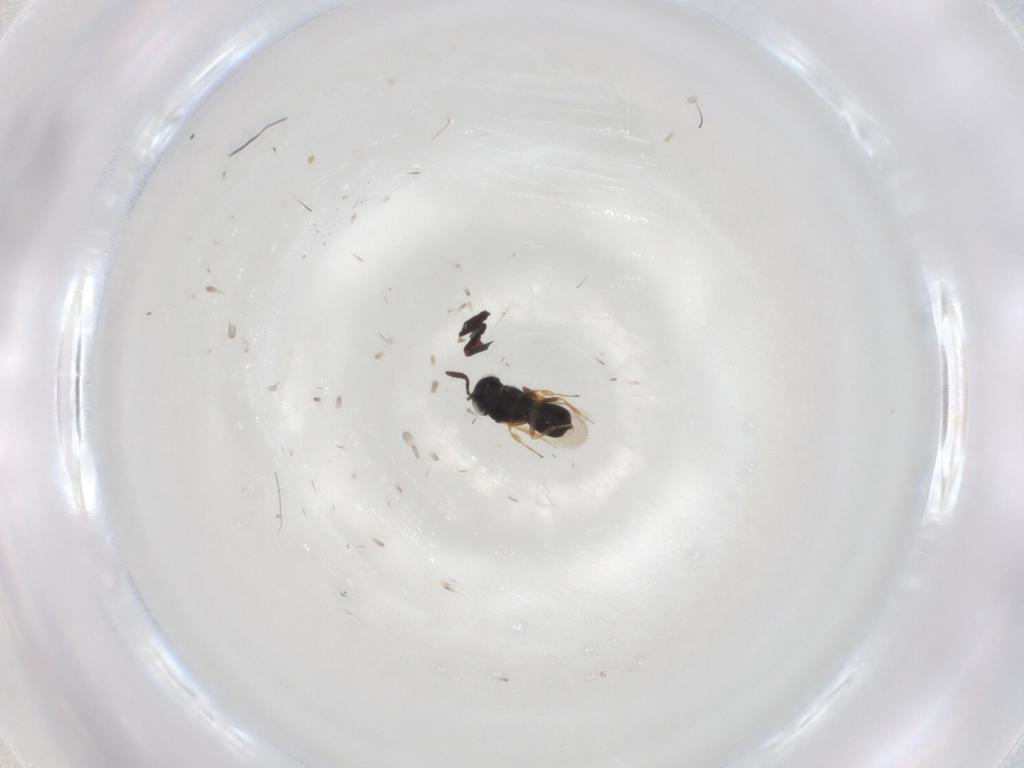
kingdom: Animalia
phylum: Arthropoda
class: Insecta
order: Hymenoptera
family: Scelionidae
